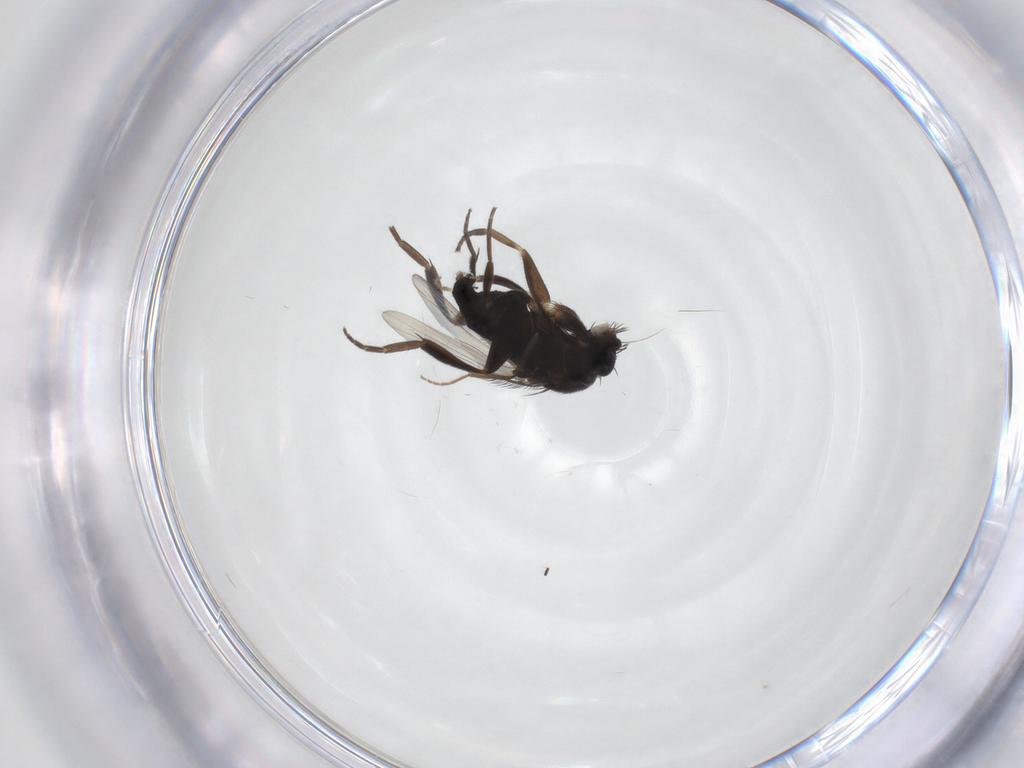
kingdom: Animalia
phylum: Arthropoda
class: Insecta
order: Diptera
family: Phoridae
